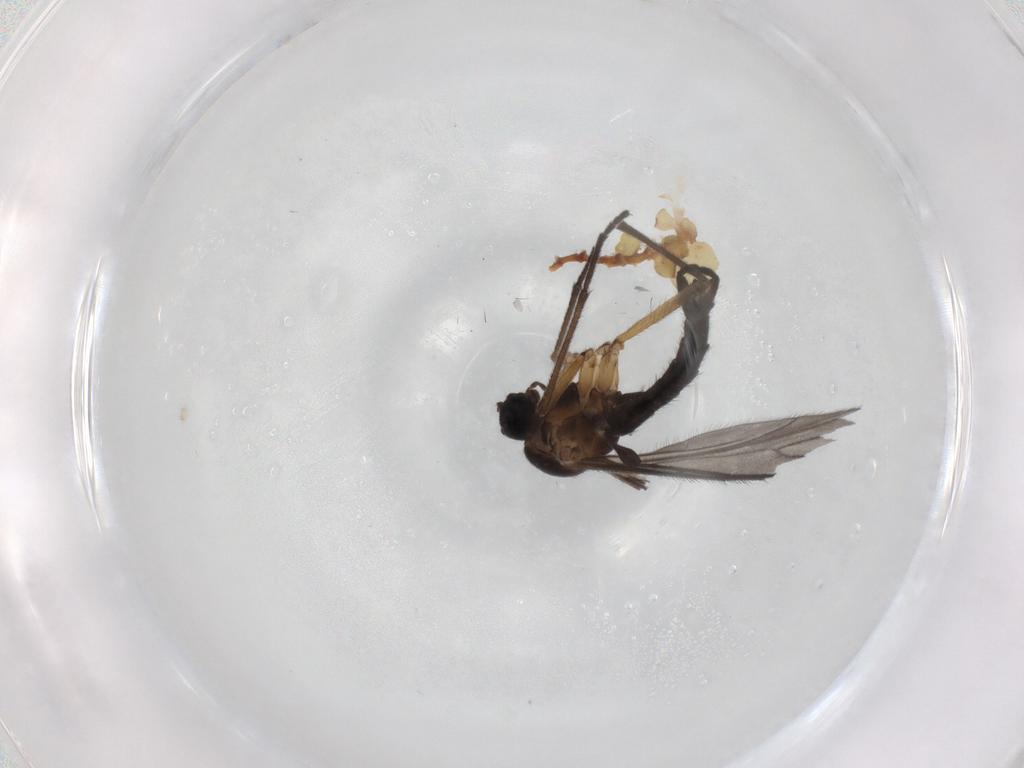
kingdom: Animalia
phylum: Arthropoda
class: Insecta
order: Diptera
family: Sciaridae
